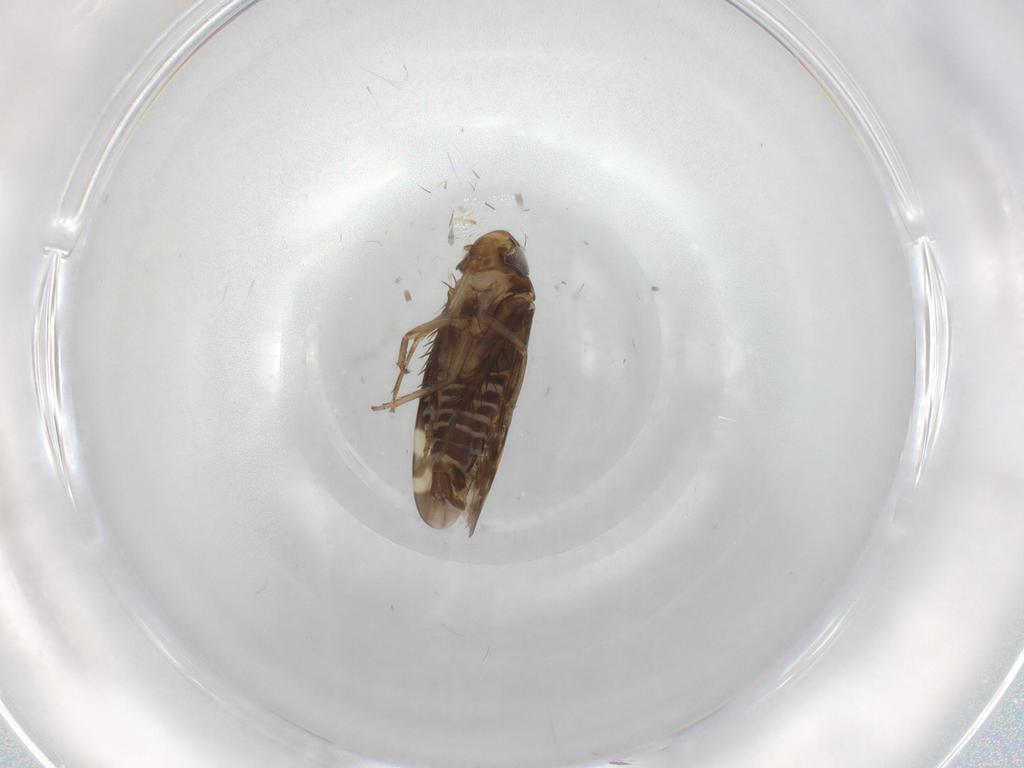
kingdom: Animalia
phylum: Arthropoda
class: Insecta
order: Hemiptera
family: Cicadellidae
